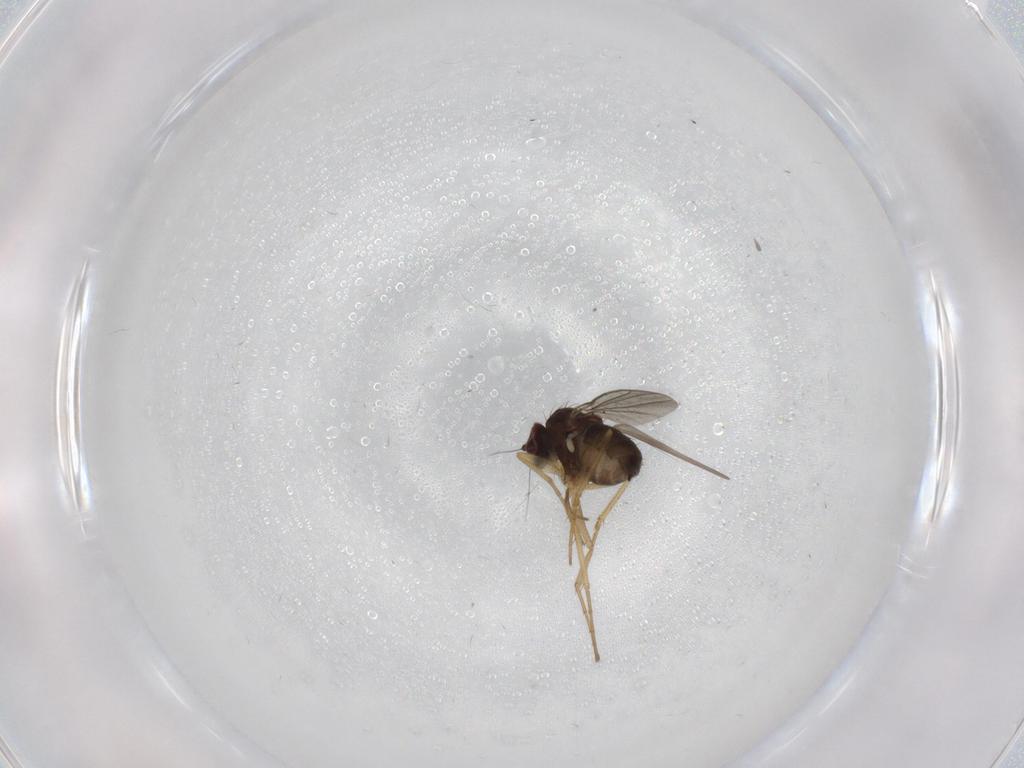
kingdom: Animalia
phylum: Arthropoda
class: Insecta
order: Diptera
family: Dolichopodidae
